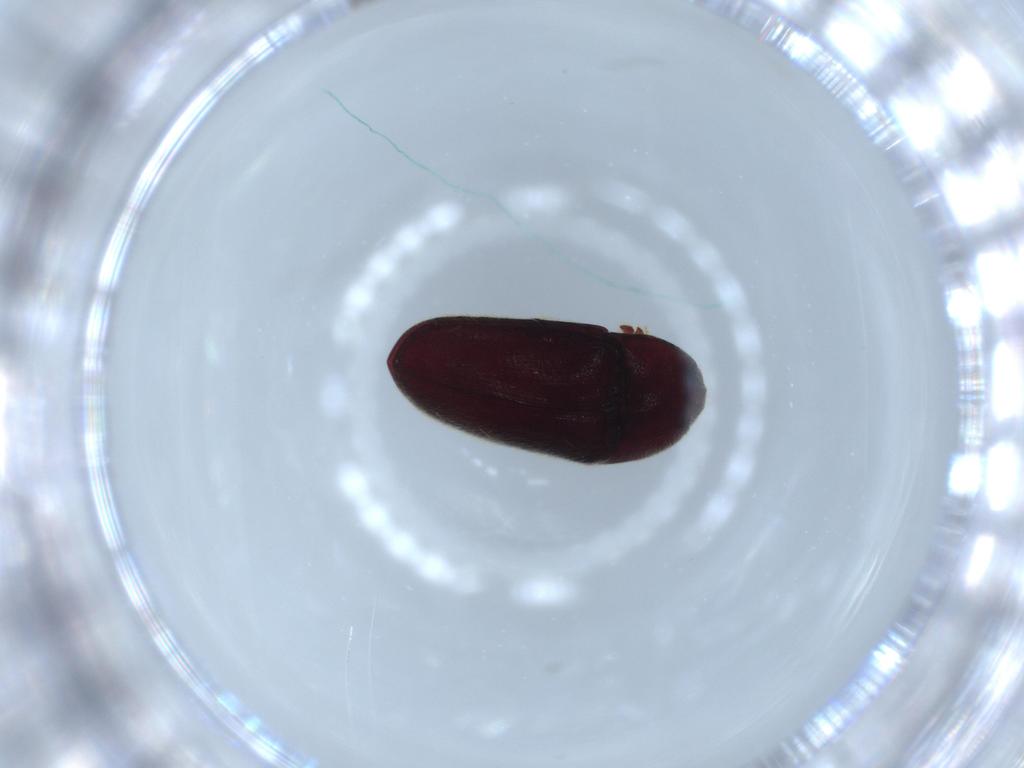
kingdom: Animalia
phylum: Arthropoda
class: Insecta
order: Coleoptera
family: Throscidae
